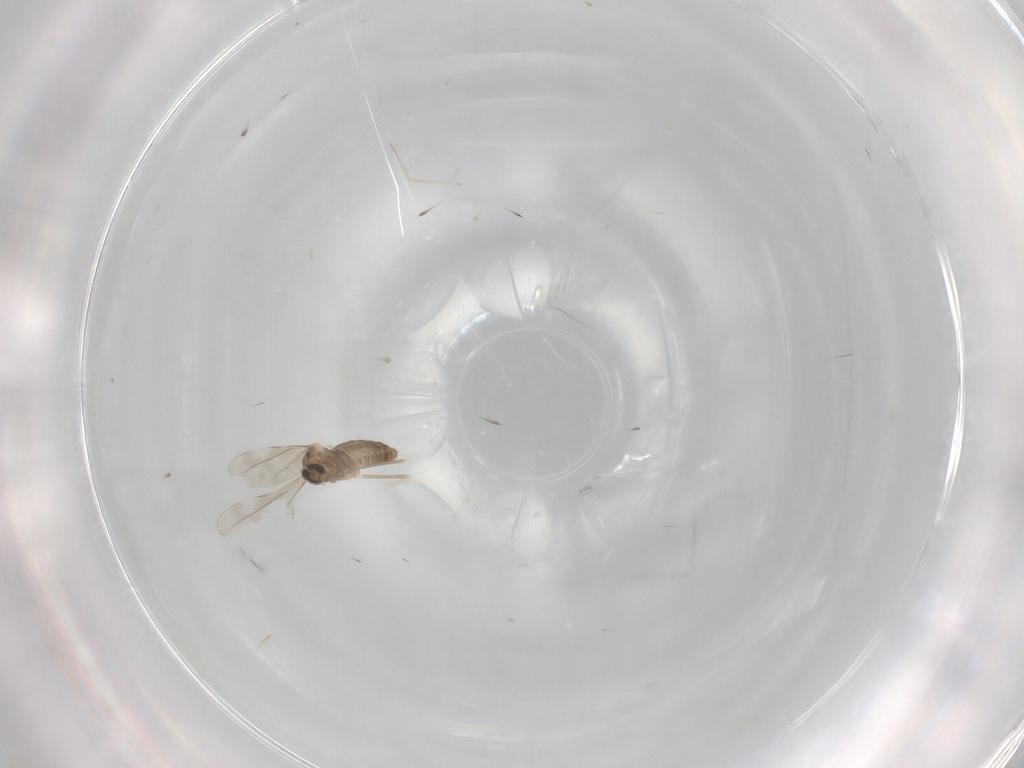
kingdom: Animalia
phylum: Arthropoda
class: Insecta
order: Diptera
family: Cecidomyiidae
